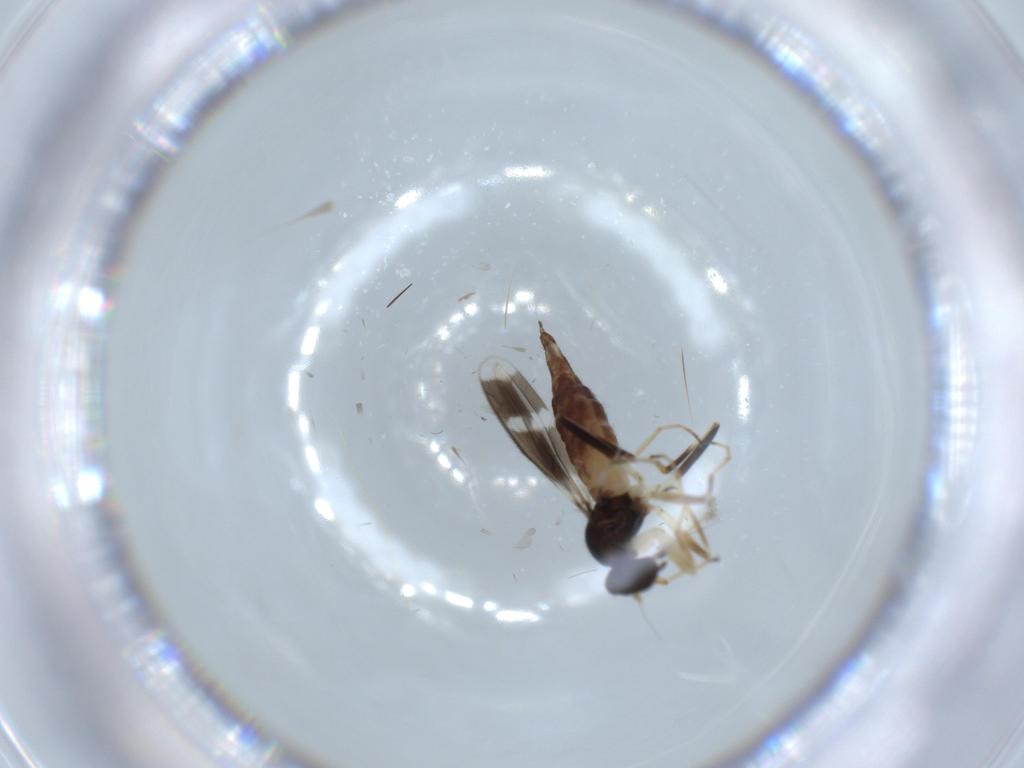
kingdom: Animalia
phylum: Arthropoda
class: Insecta
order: Diptera
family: Hybotidae
